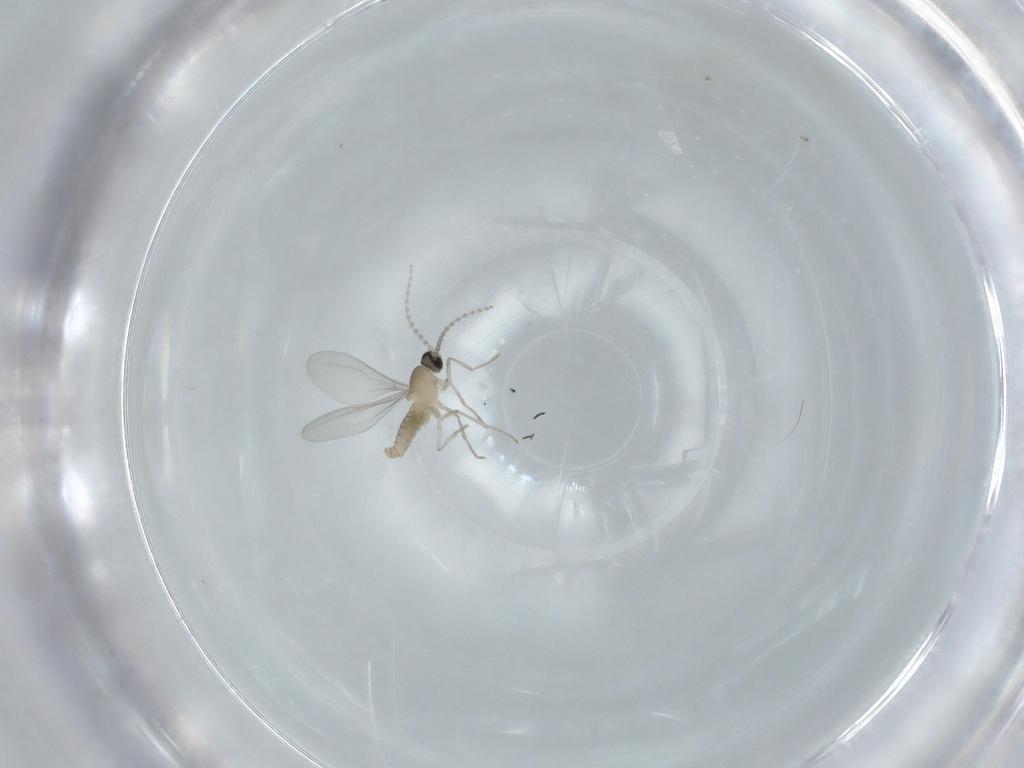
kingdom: Animalia
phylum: Arthropoda
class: Insecta
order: Diptera
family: Cecidomyiidae
